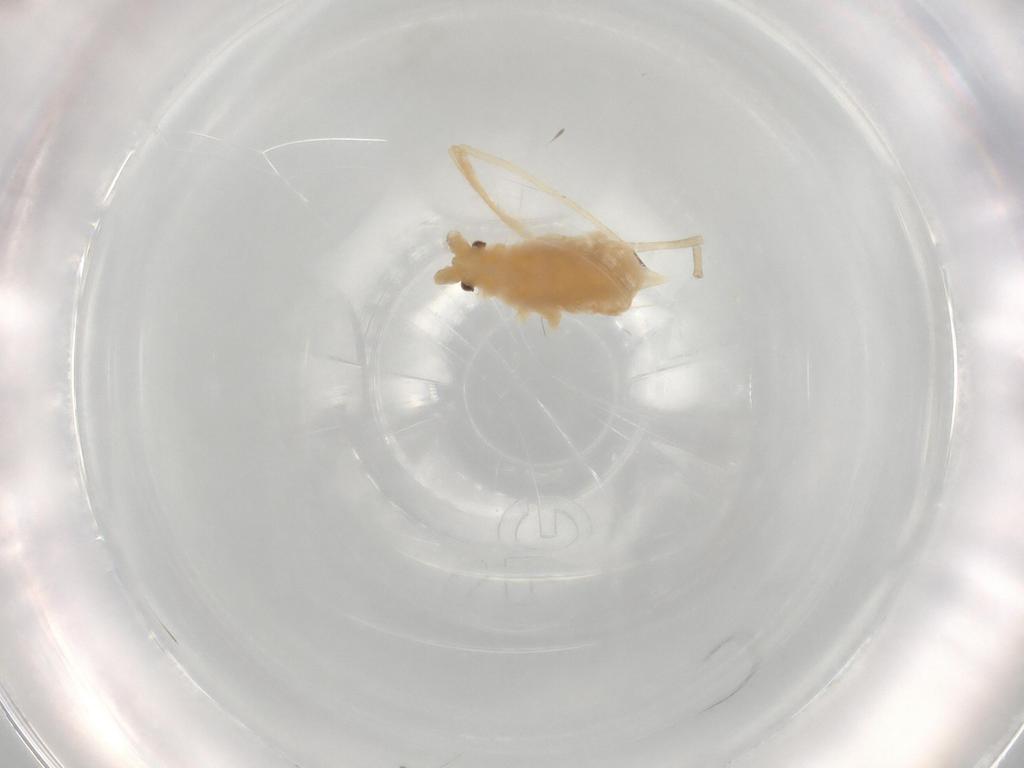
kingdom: Animalia
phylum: Arthropoda
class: Insecta
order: Hemiptera
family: Aphididae
